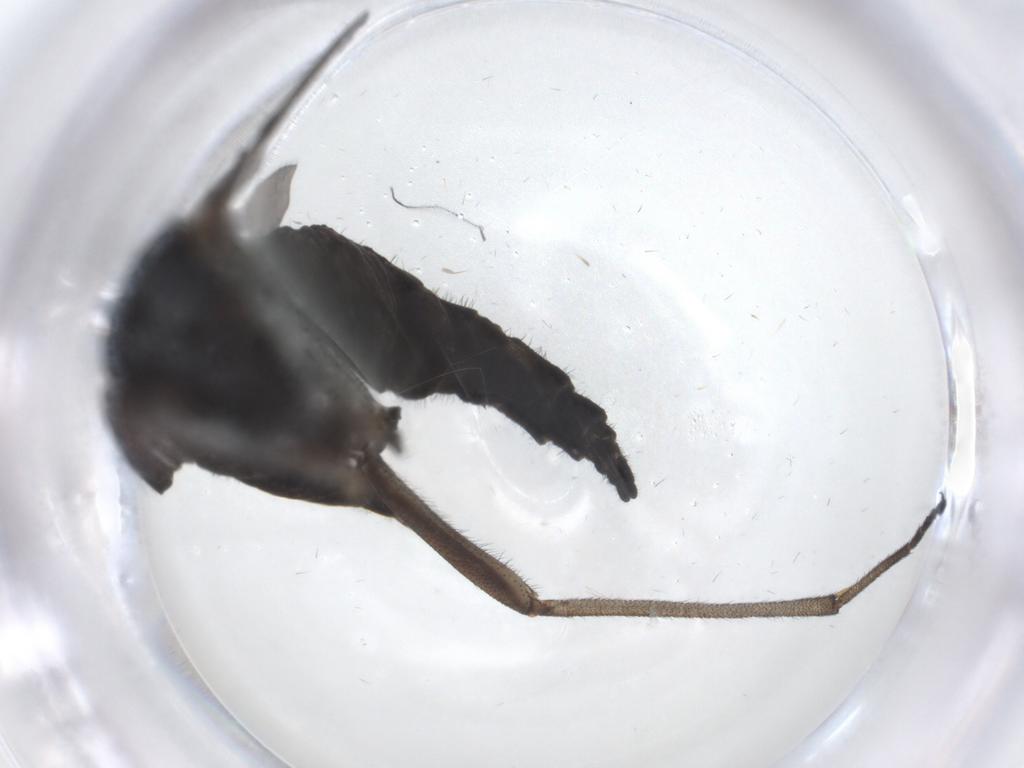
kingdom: Animalia
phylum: Arthropoda
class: Insecta
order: Diptera
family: Sciaridae
